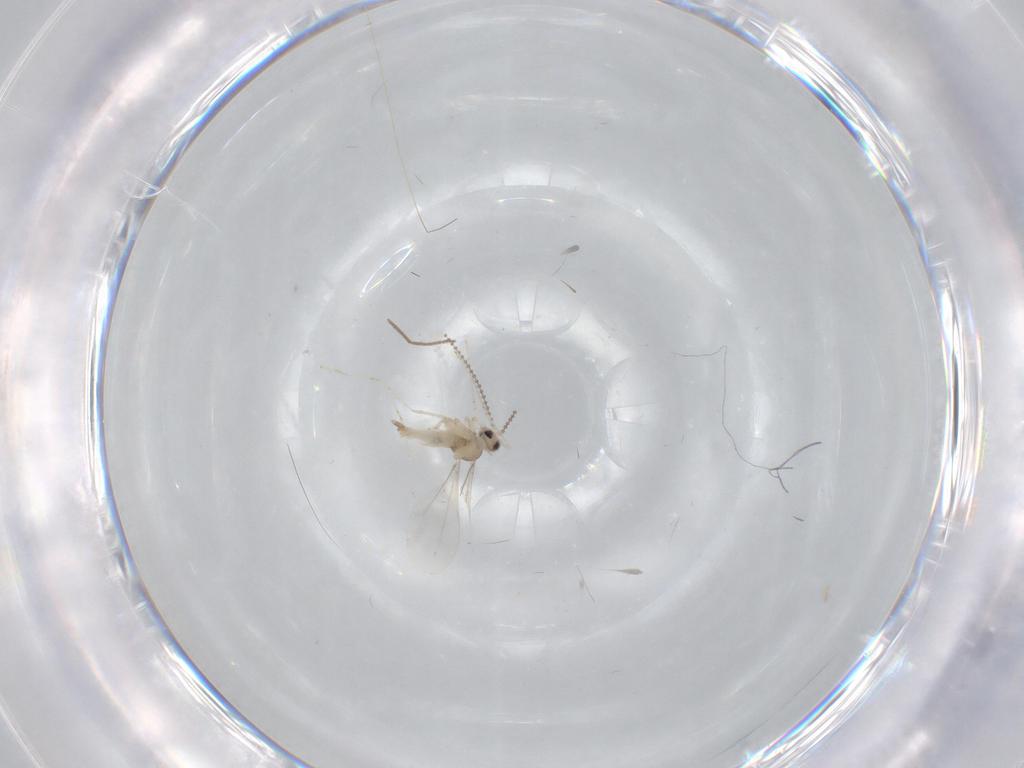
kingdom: Animalia
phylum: Arthropoda
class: Insecta
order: Diptera
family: Cecidomyiidae
